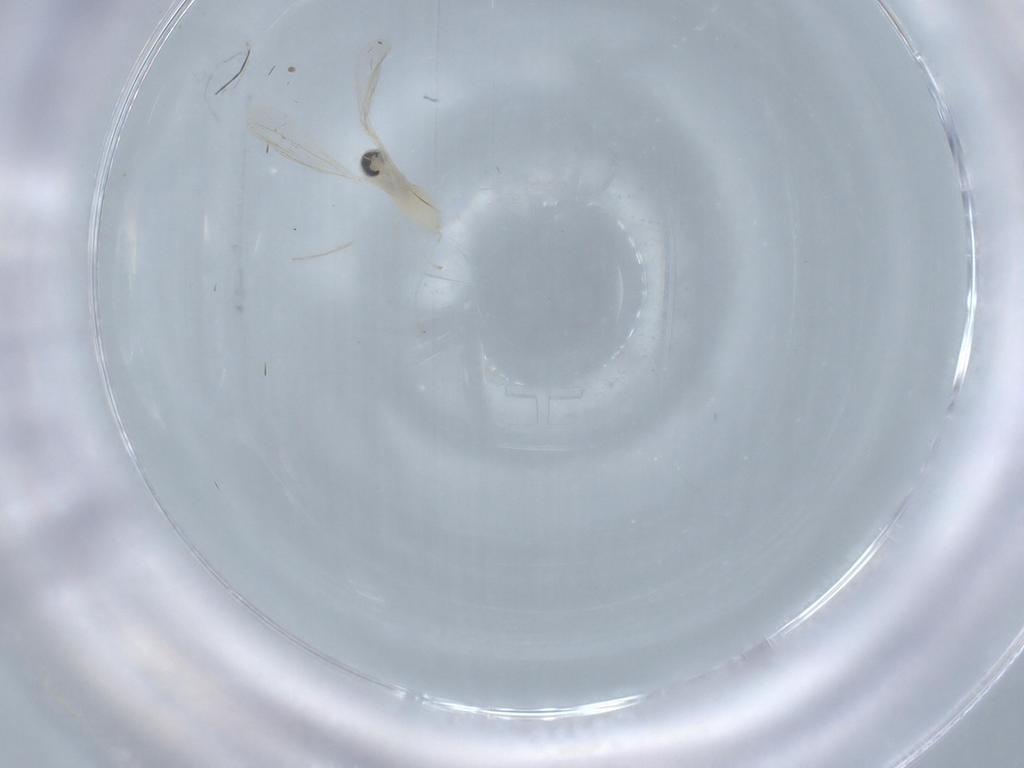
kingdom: Animalia
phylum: Arthropoda
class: Insecta
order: Diptera
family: Cecidomyiidae
